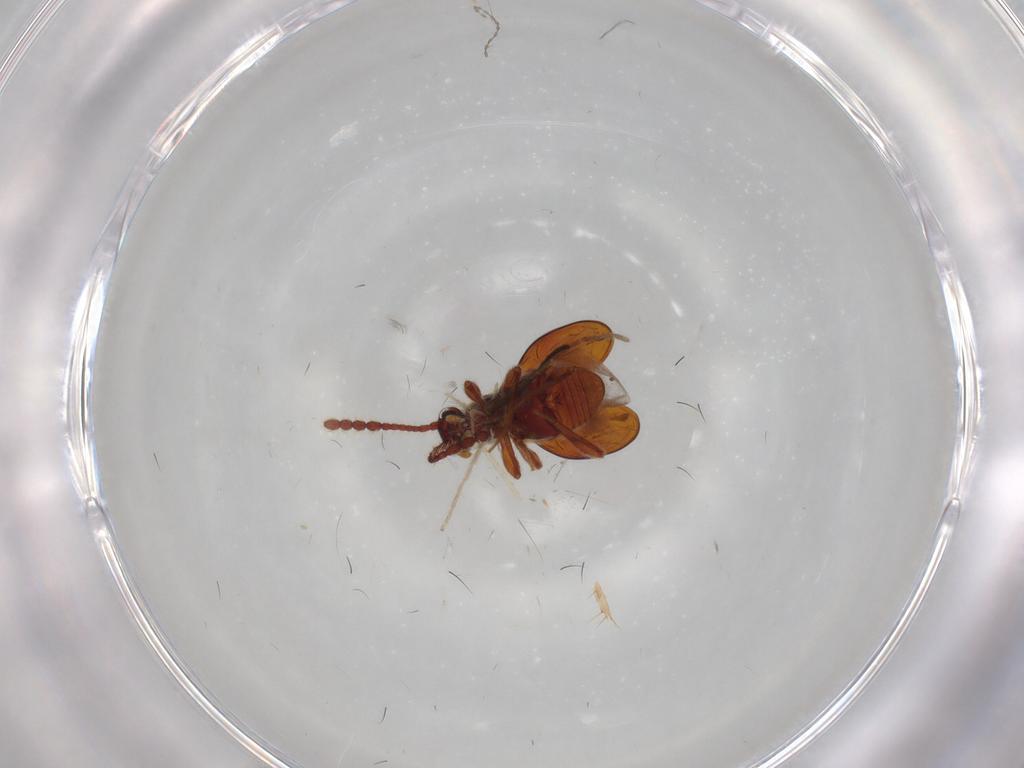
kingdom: Animalia
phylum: Arthropoda
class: Insecta
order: Coleoptera
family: Staphylinidae
